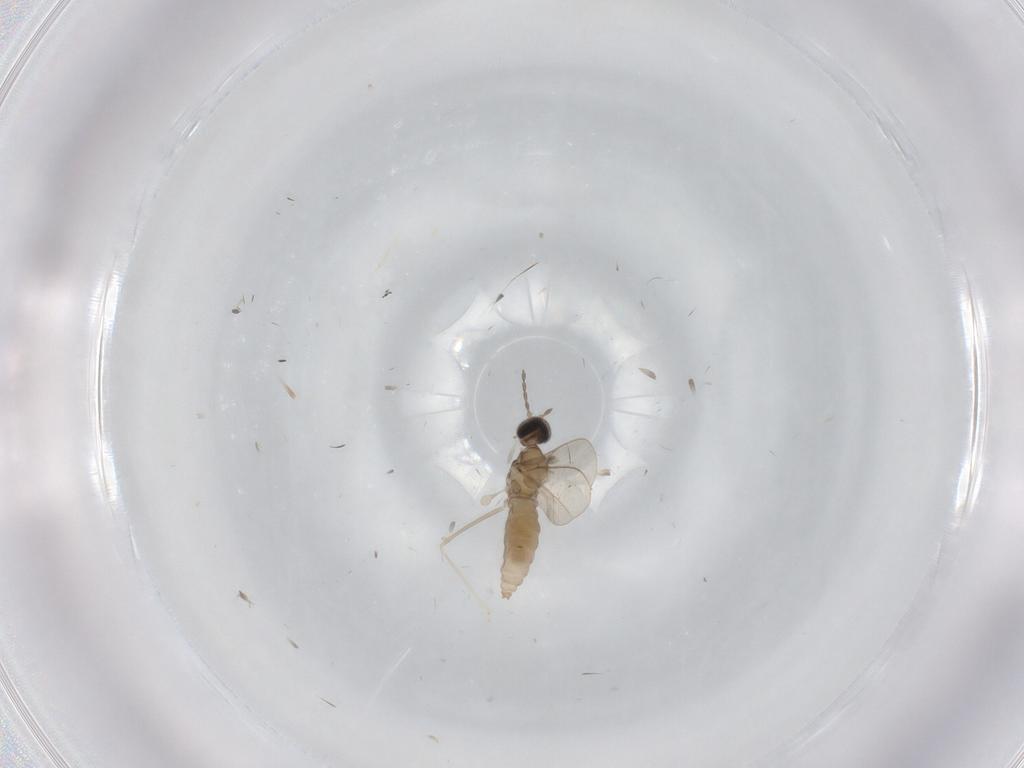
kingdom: Animalia
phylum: Arthropoda
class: Insecta
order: Diptera
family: Cecidomyiidae
